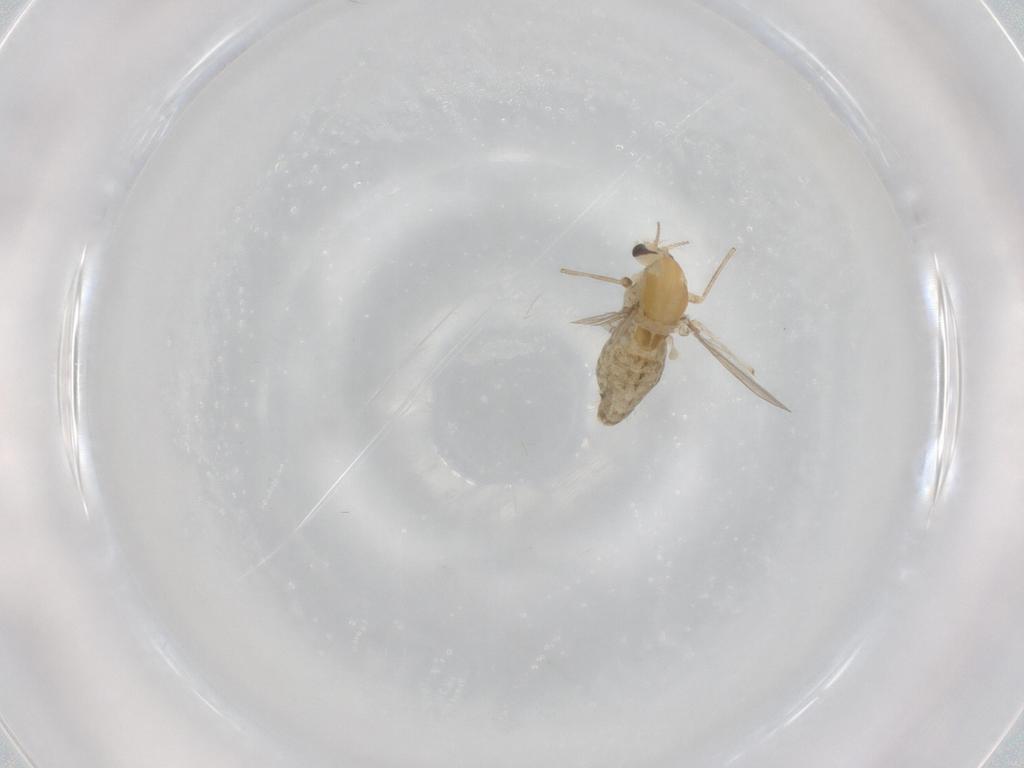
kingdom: Animalia
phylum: Arthropoda
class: Insecta
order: Diptera
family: Chironomidae
